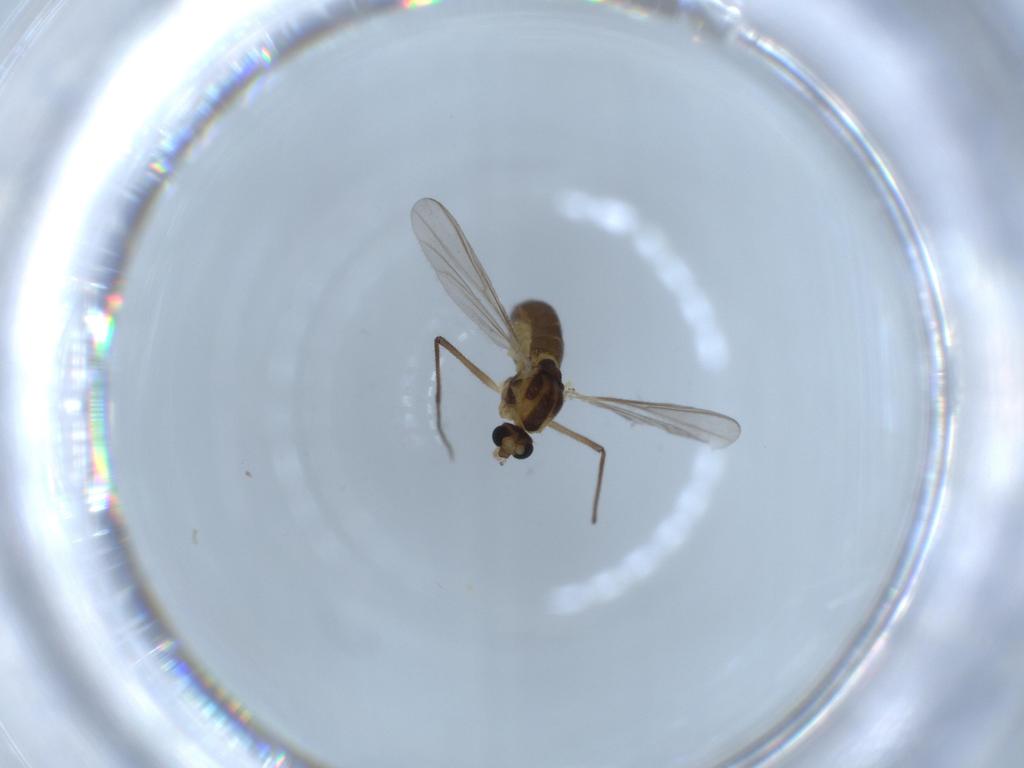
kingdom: Animalia
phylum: Arthropoda
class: Insecta
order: Diptera
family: Chironomidae
